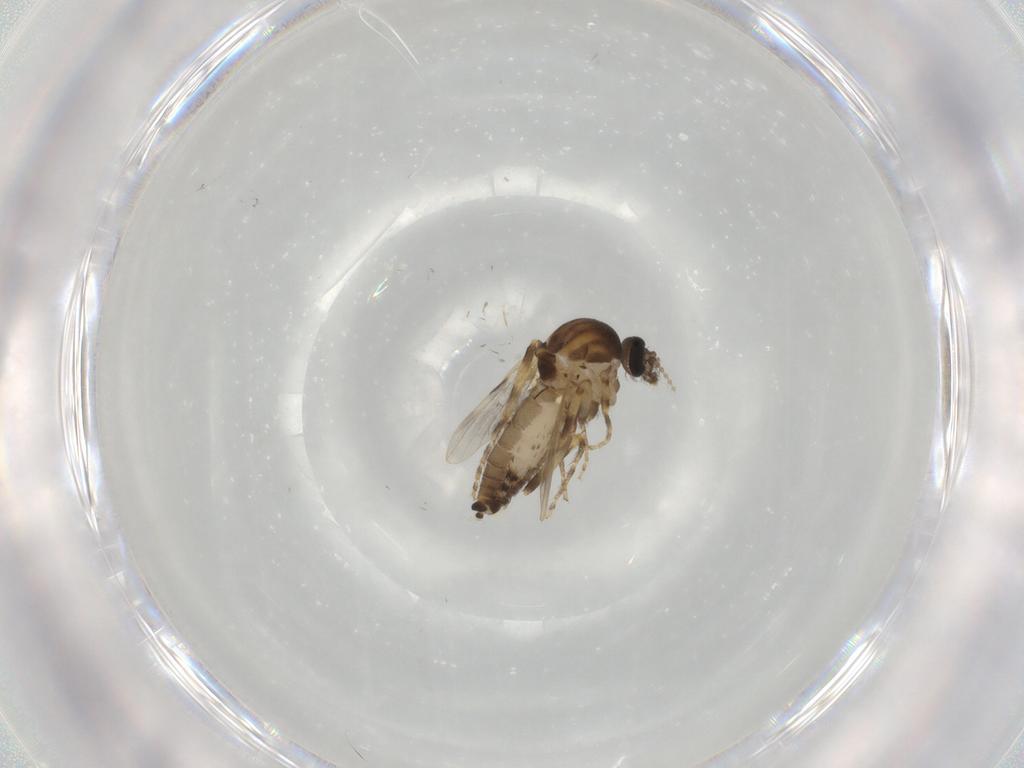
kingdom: Animalia
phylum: Arthropoda
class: Insecta
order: Diptera
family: Ceratopogonidae
